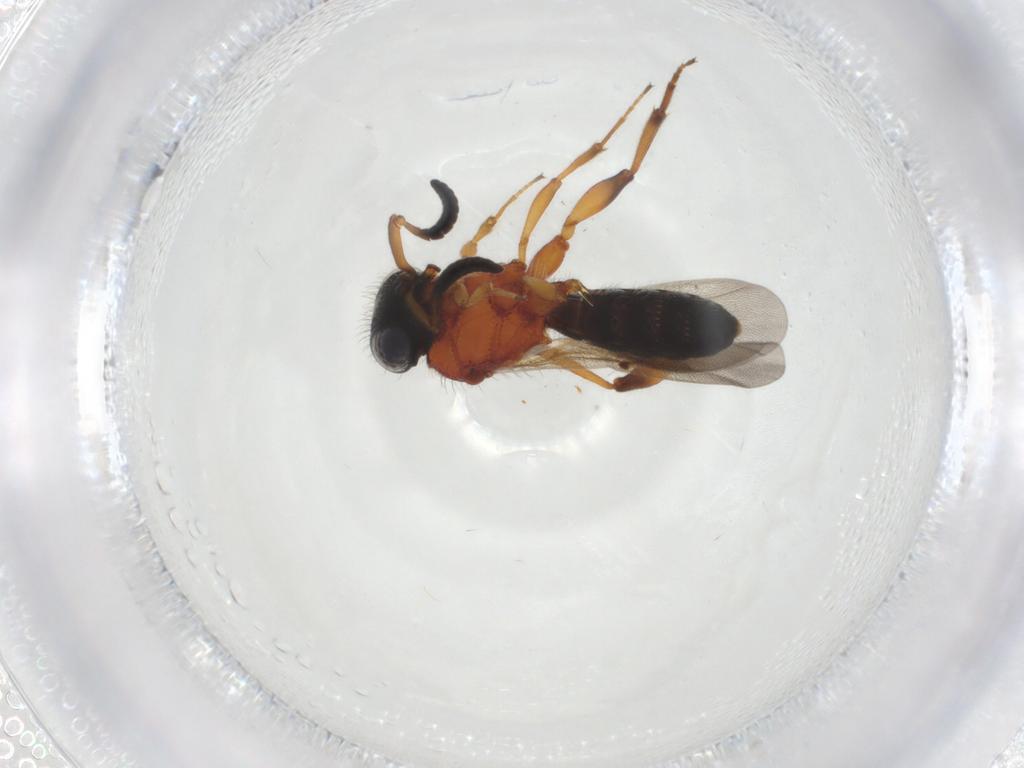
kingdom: Animalia
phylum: Arthropoda
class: Insecta
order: Hymenoptera
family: Scelionidae
